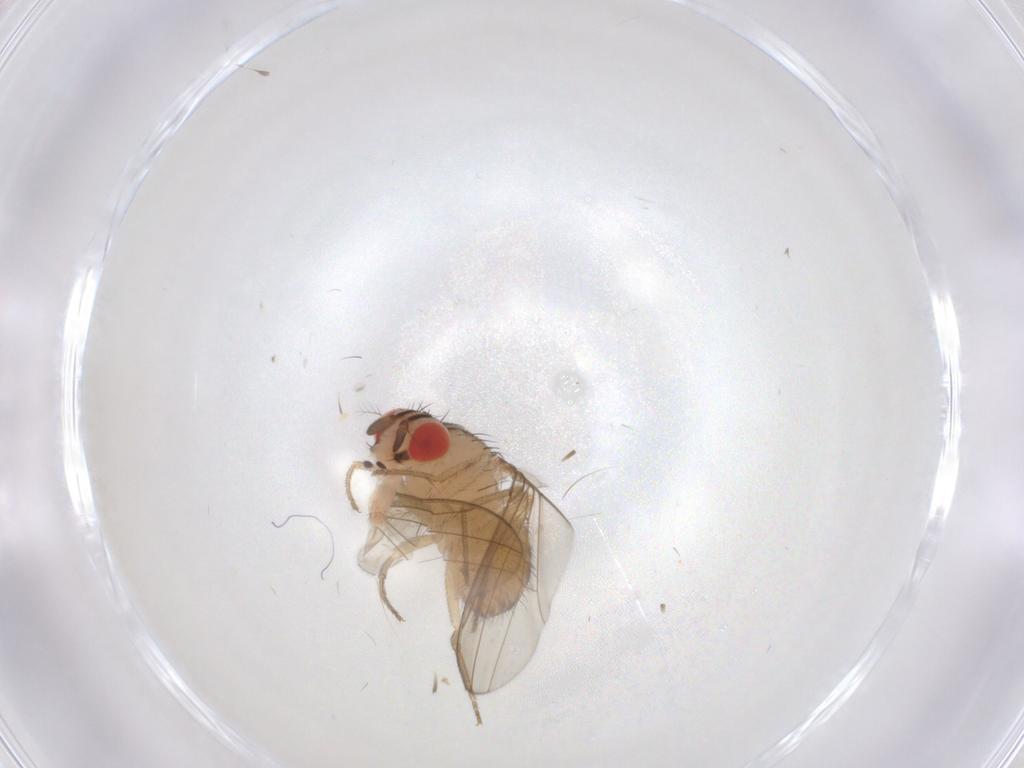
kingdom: Animalia
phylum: Arthropoda
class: Insecta
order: Diptera
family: Drosophilidae
